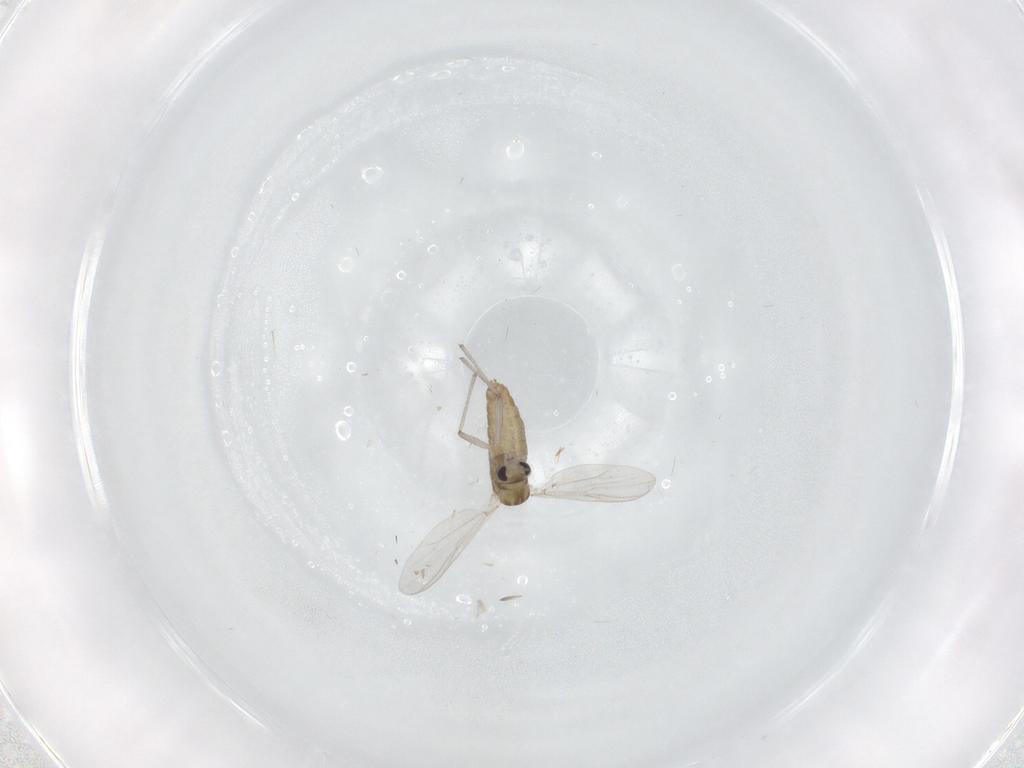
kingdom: Animalia
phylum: Arthropoda
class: Insecta
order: Diptera
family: Chironomidae
